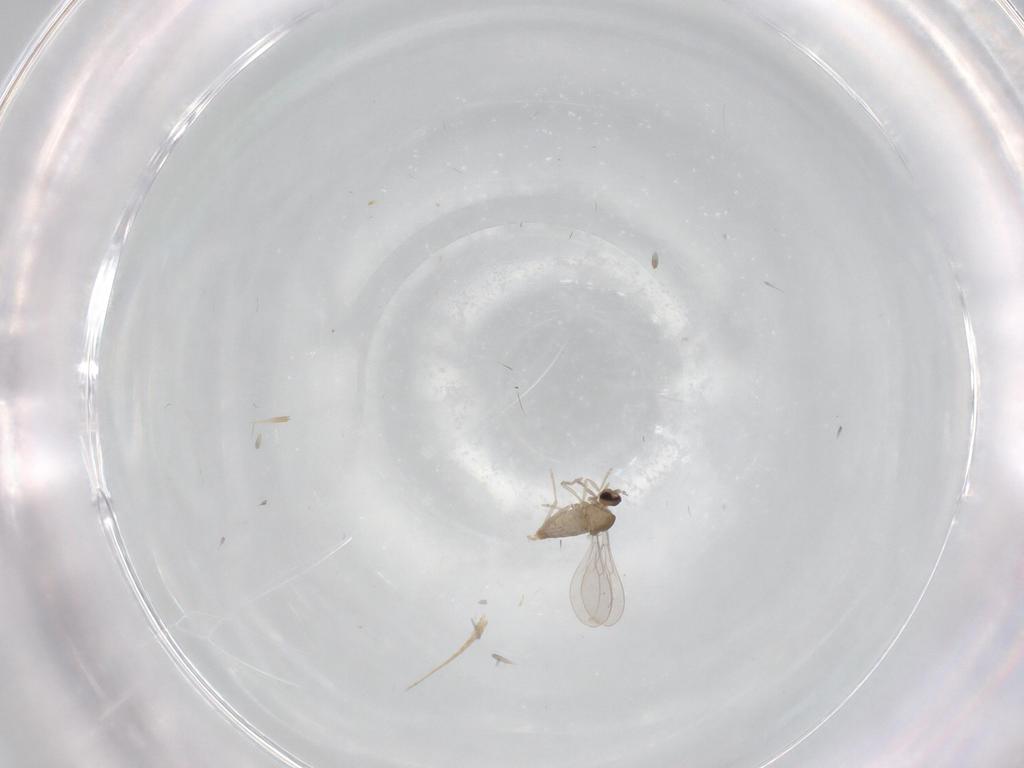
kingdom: Animalia
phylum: Arthropoda
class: Insecta
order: Diptera
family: Cecidomyiidae
